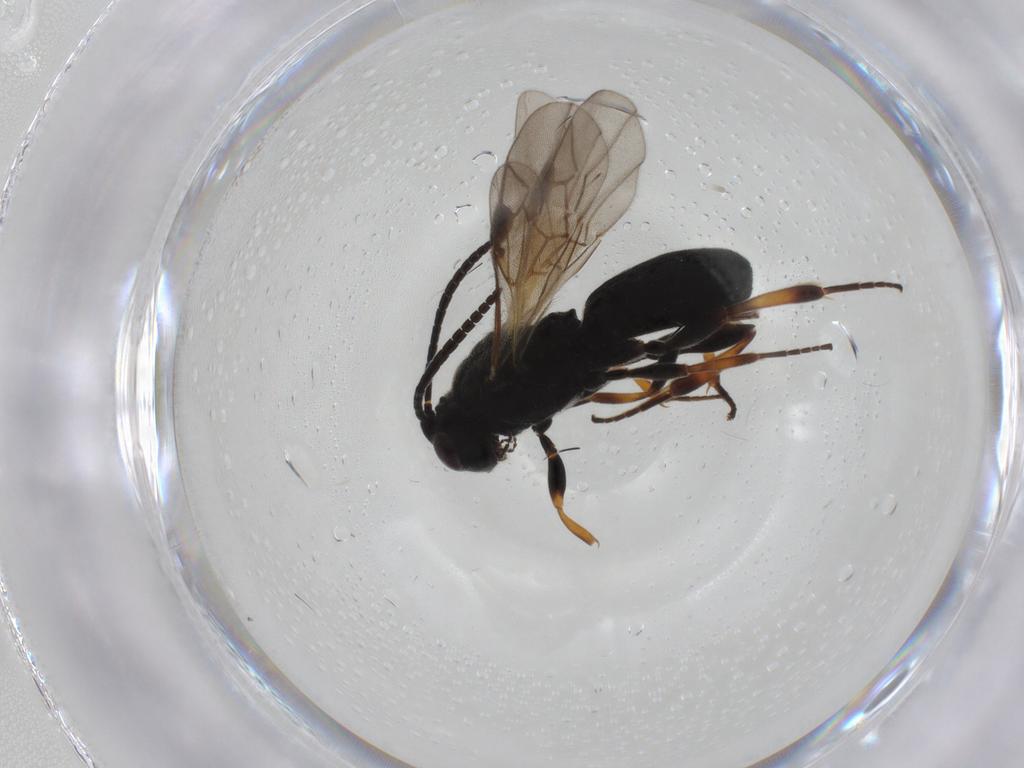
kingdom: Animalia
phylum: Arthropoda
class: Insecta
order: Hymenoptera
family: Braconidae
